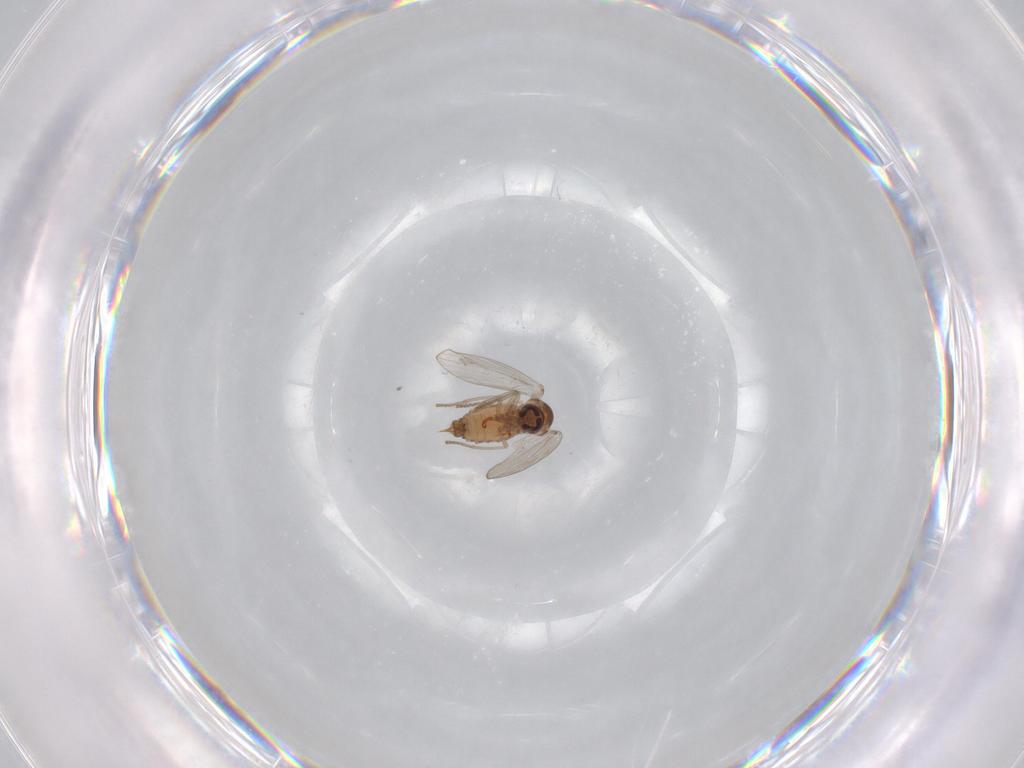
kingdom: Animalia
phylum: Arthropoda
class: Insecta
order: Diptera
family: Psychodidae
